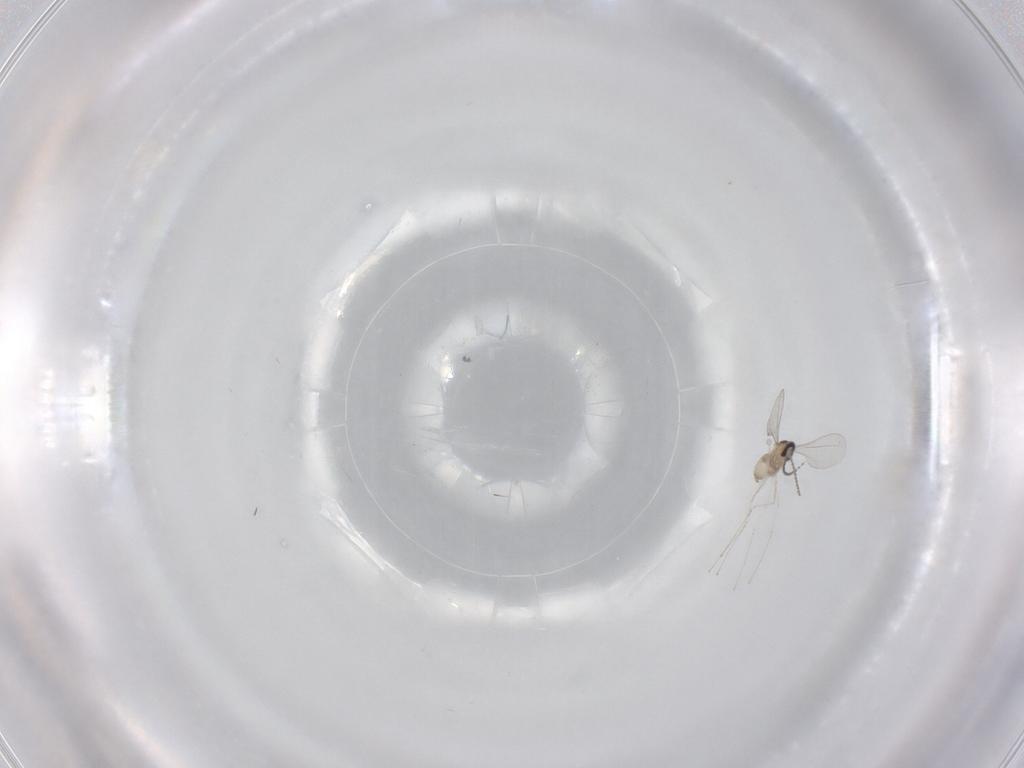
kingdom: Animalia
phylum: Arthropoda
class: Insecta
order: Diptera
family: Cecidomyiidae
